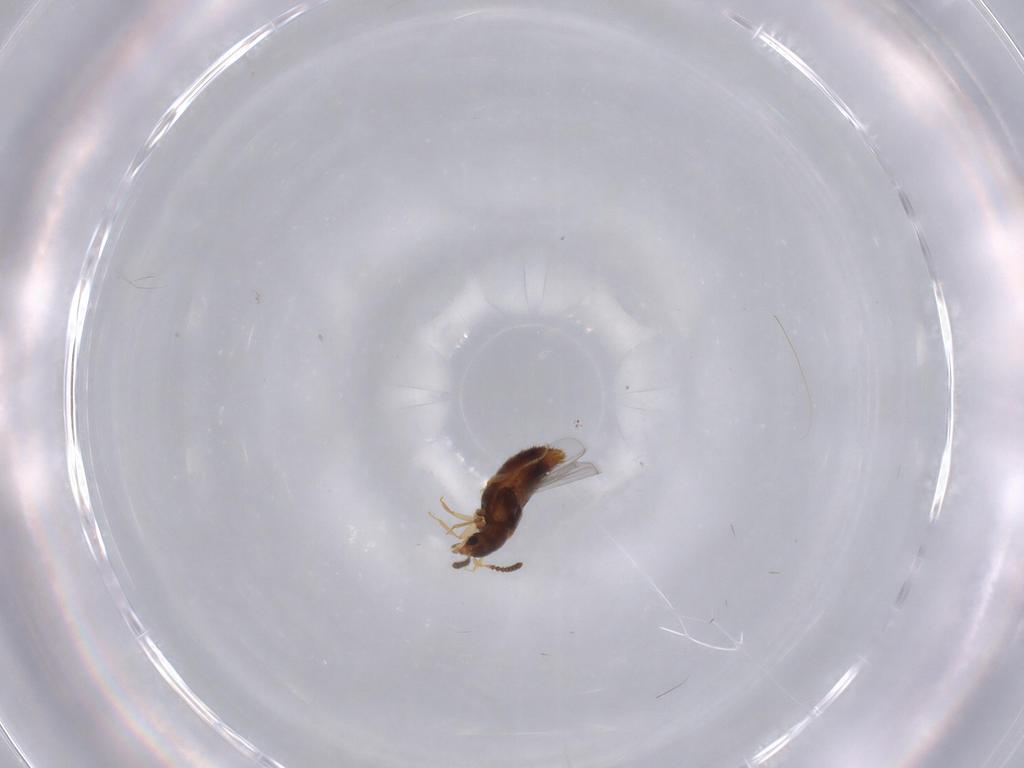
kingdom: Animalia
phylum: Arthropoda
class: Insecta
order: Coleoptera
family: Staphylinidae
